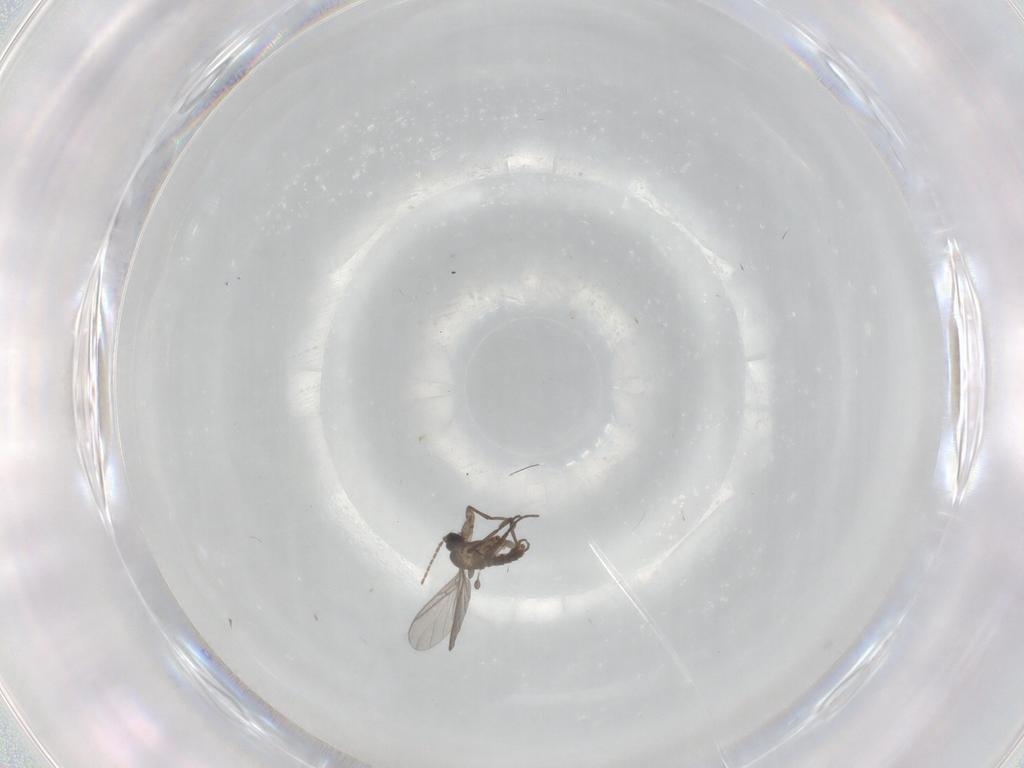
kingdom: Animalia
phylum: Arthropoda
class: Insecta
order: Diptera
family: Sciaridae
